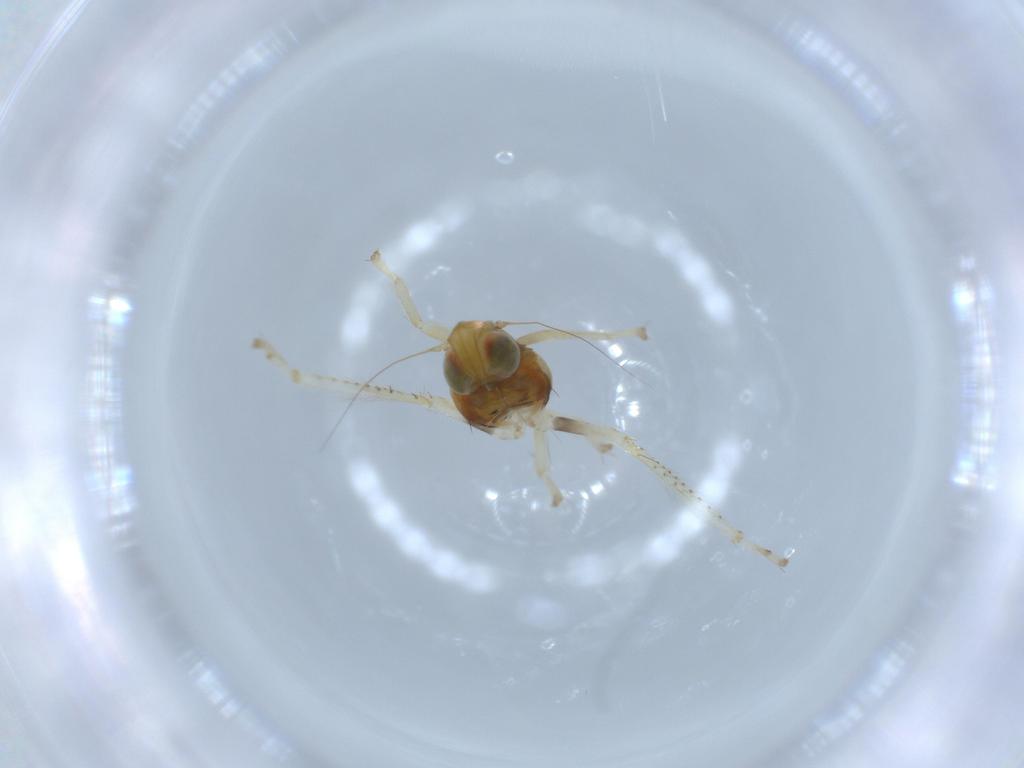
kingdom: Animalia
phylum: Arthropoda
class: Insecta
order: Hemiptera
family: Cicadellidae
